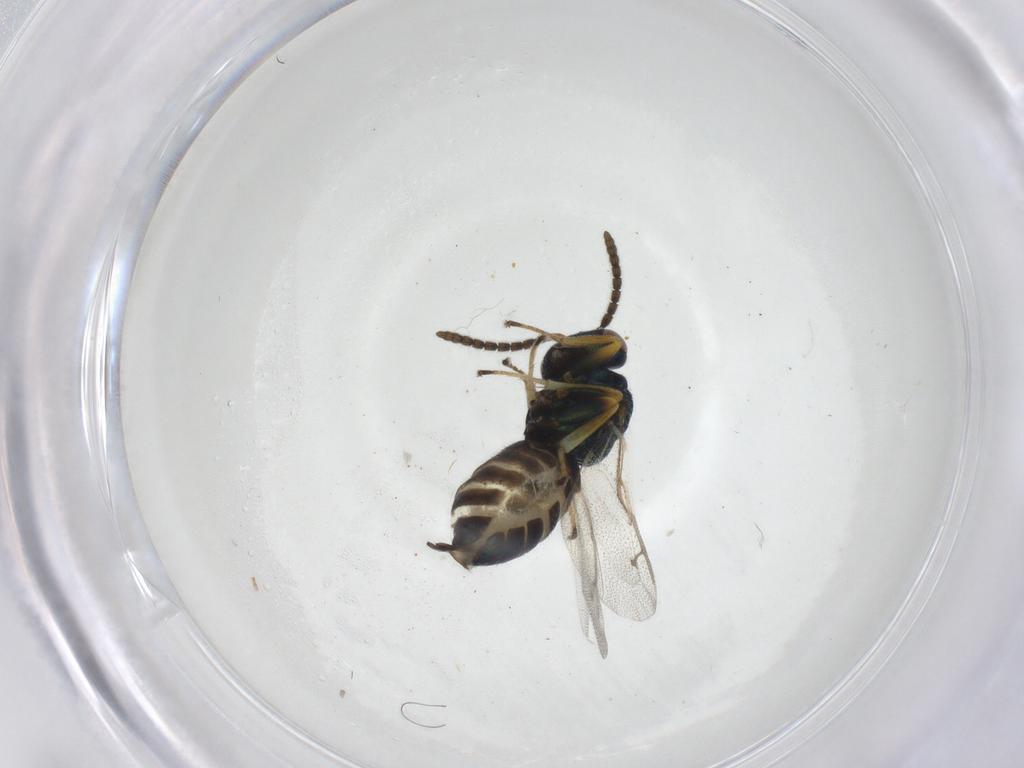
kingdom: Animalia
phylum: Arthropoda
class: Insecta
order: Hymenoptera
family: Pteromalidae
